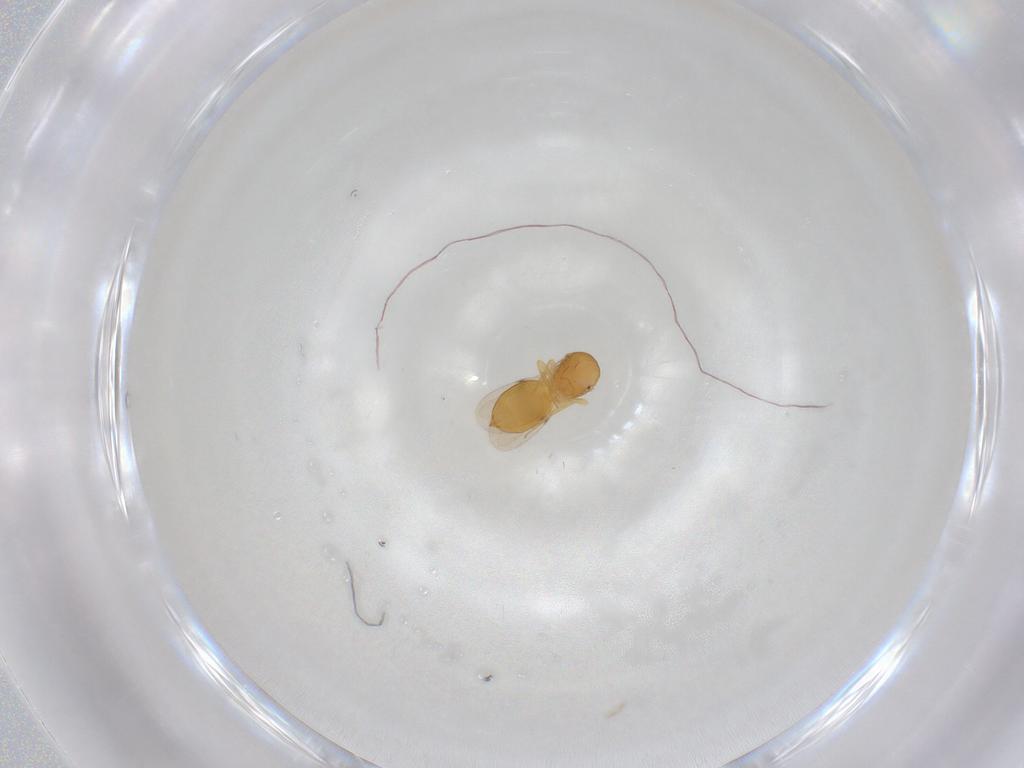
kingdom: Animalia
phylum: Arthropoda
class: Insecta
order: Hymenoptera
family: Scelionidae
